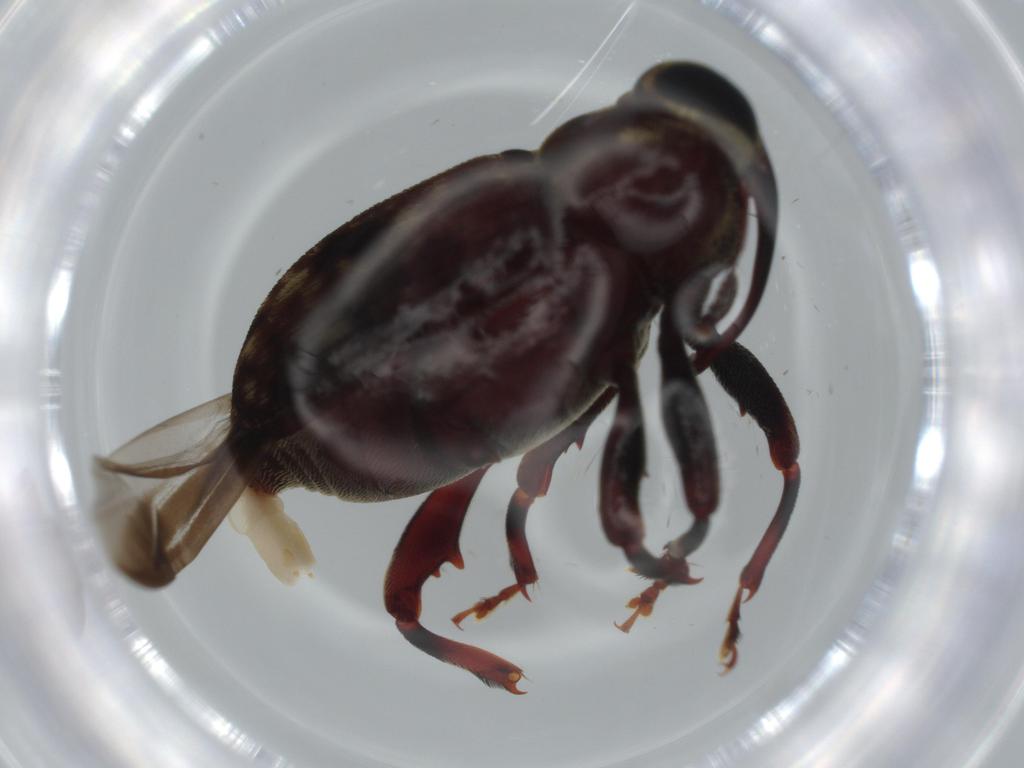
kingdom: Animalia
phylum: Arthropoda
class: Insecta
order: Coleoptera
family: Curculionidae
